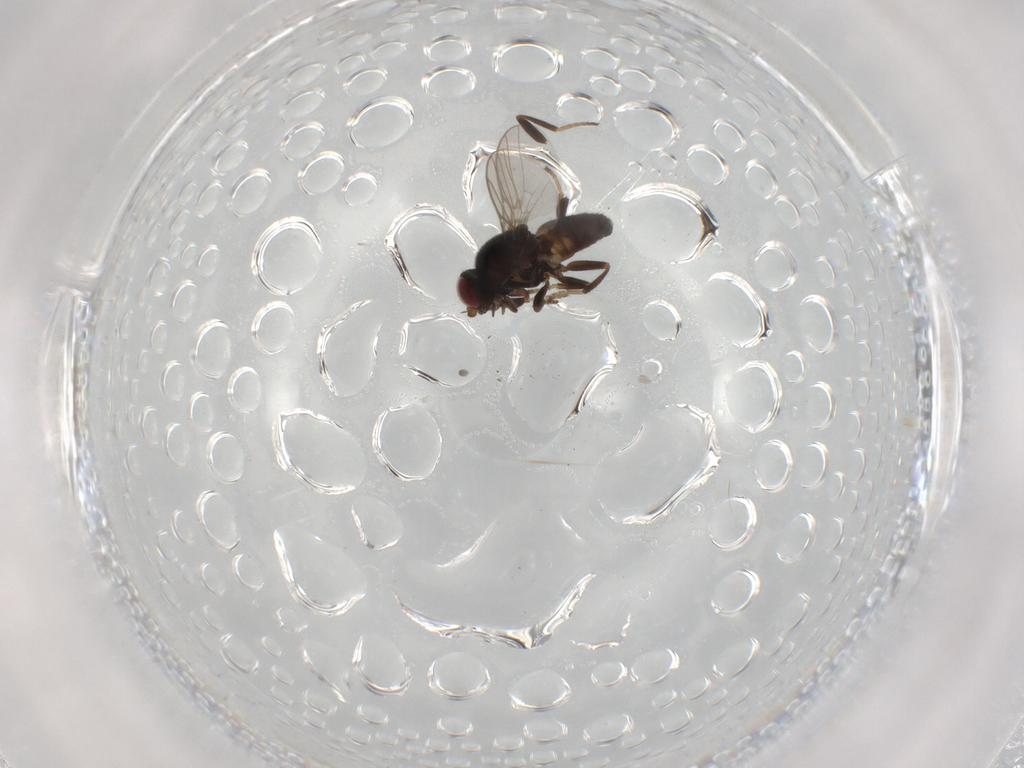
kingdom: Animalia
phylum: Arthropoda
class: Insecta
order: Diptera
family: Chloropidae
